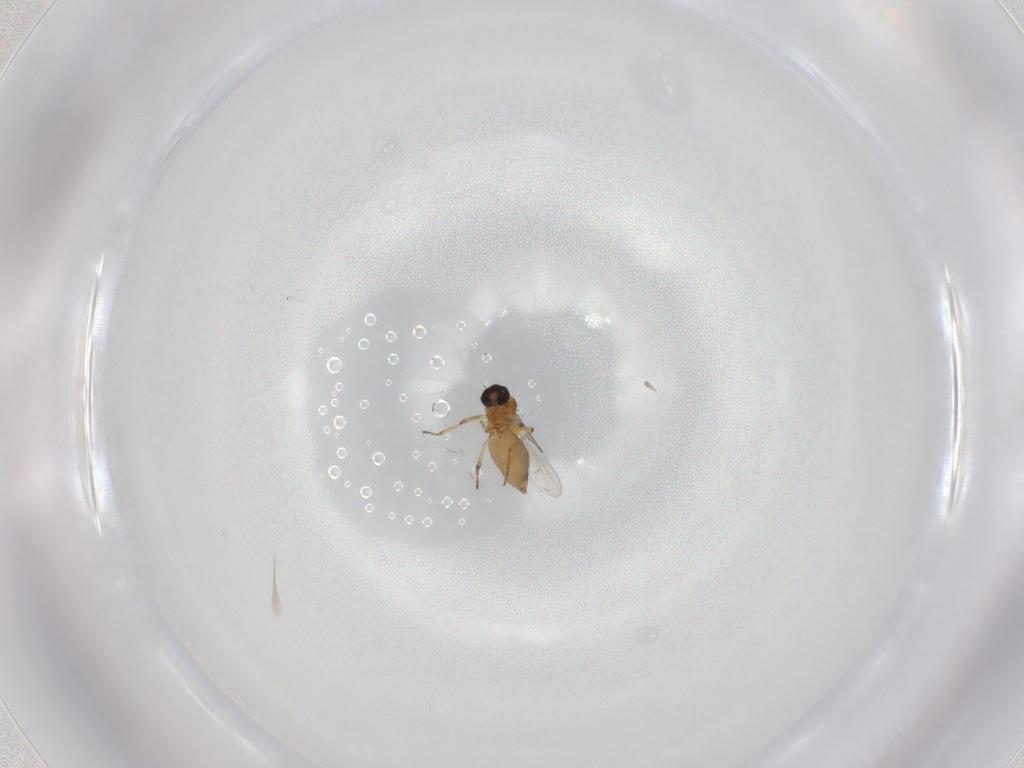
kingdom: Animalia
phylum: Arthropoda
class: Insecta
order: Diptera
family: Ceratopogonidae
